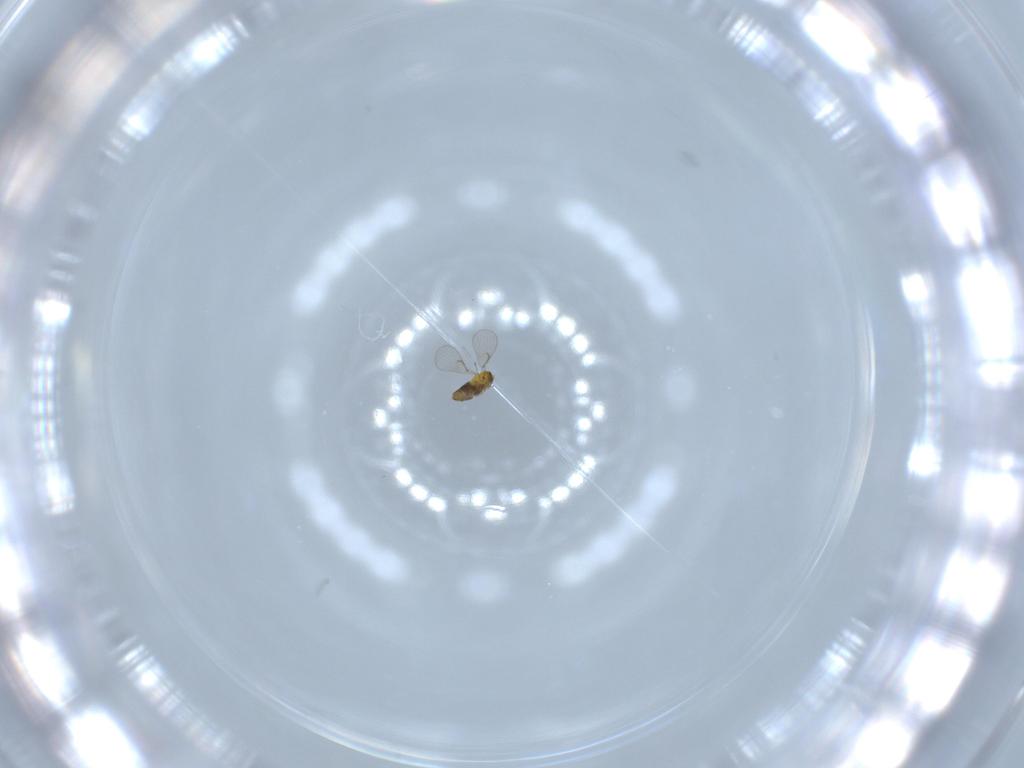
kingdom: Animalia
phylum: Arthropoda
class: Insecta
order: Hymenoptera
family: Trichogrammatidae
